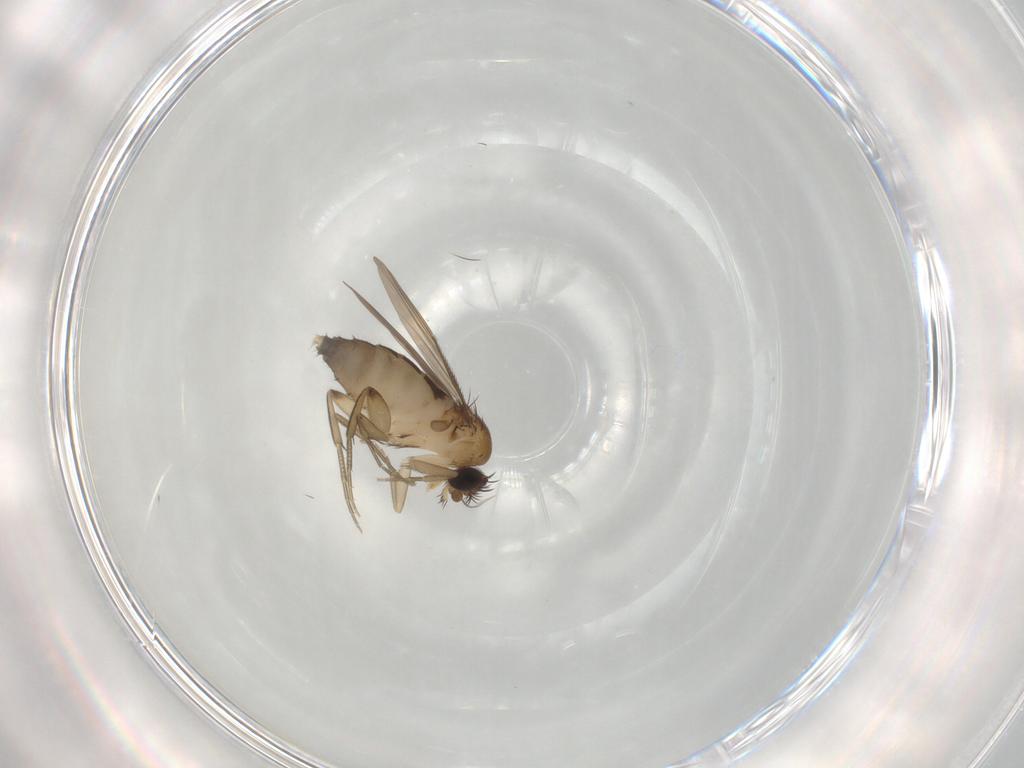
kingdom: Animalia
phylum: Arthropoda
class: Insecta
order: Diptera
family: Phoridae
